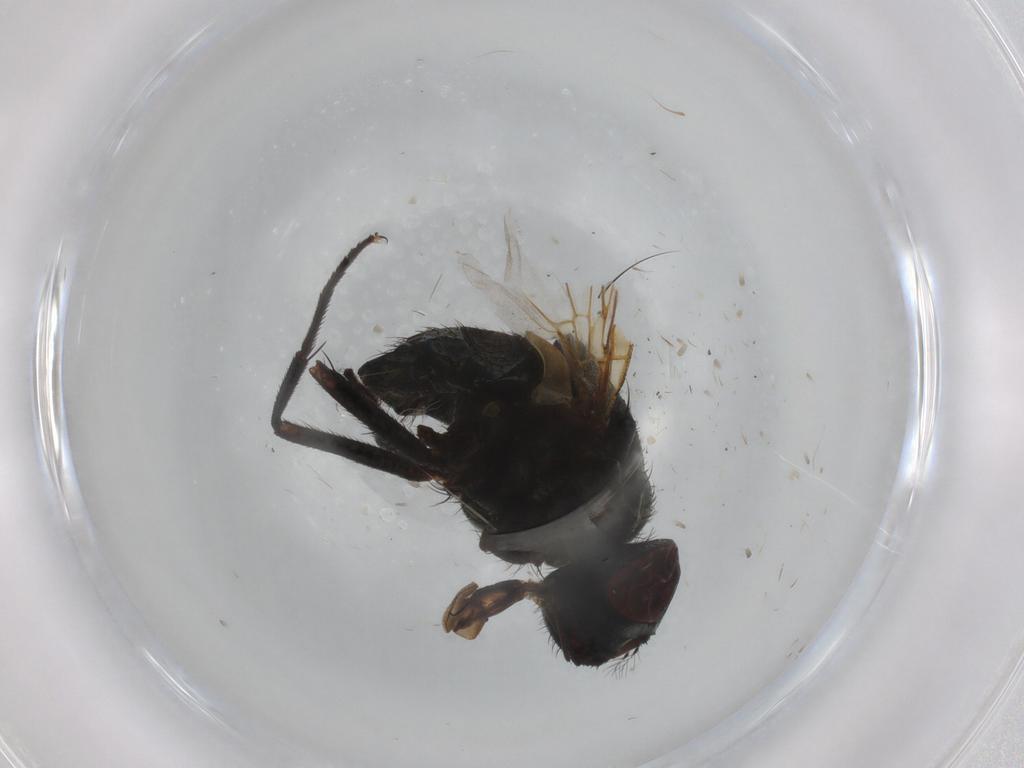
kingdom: Animalia
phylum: Arthropoda
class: Insecta
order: Diptera
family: Muscidae
